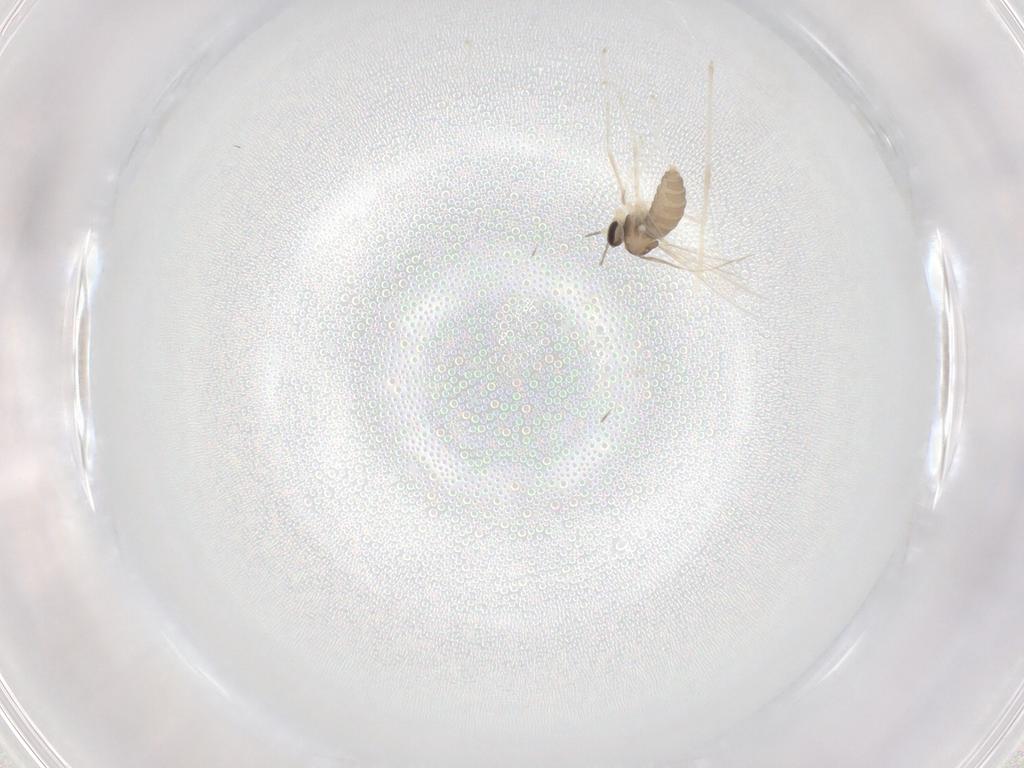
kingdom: Animalia
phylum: Arthropoda
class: Insecta
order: Diptera
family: Cecidomyiidae
